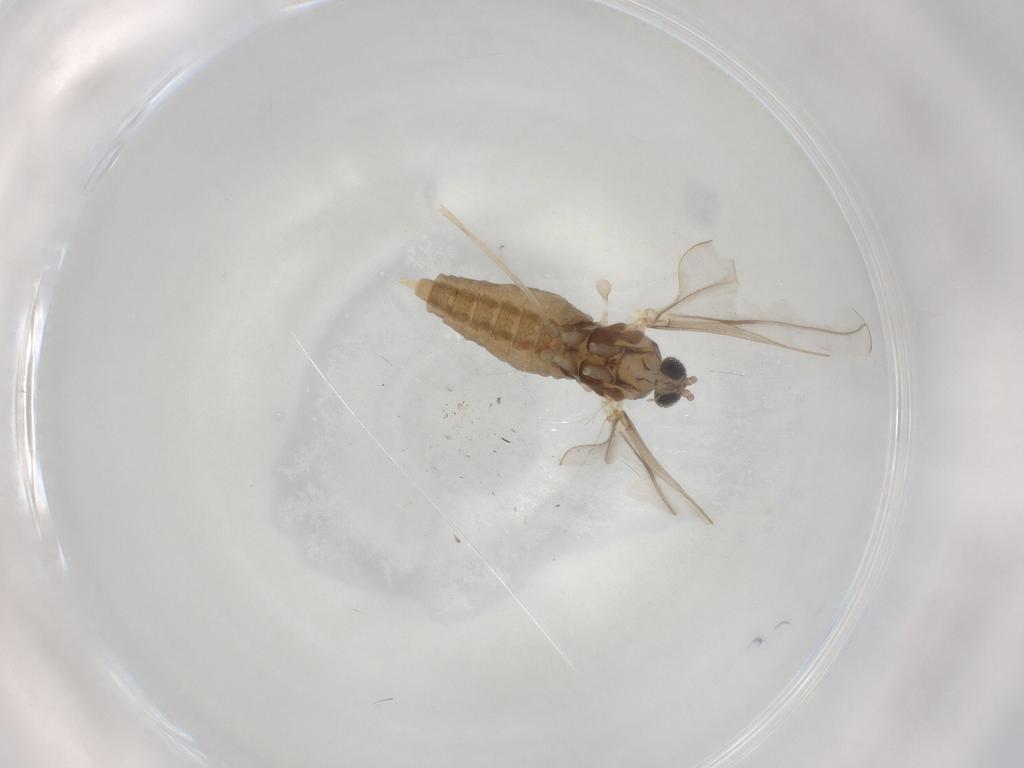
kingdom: Animalia
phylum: Arthropoda
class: Insecta
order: Diptera
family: Cecidomyiidae
